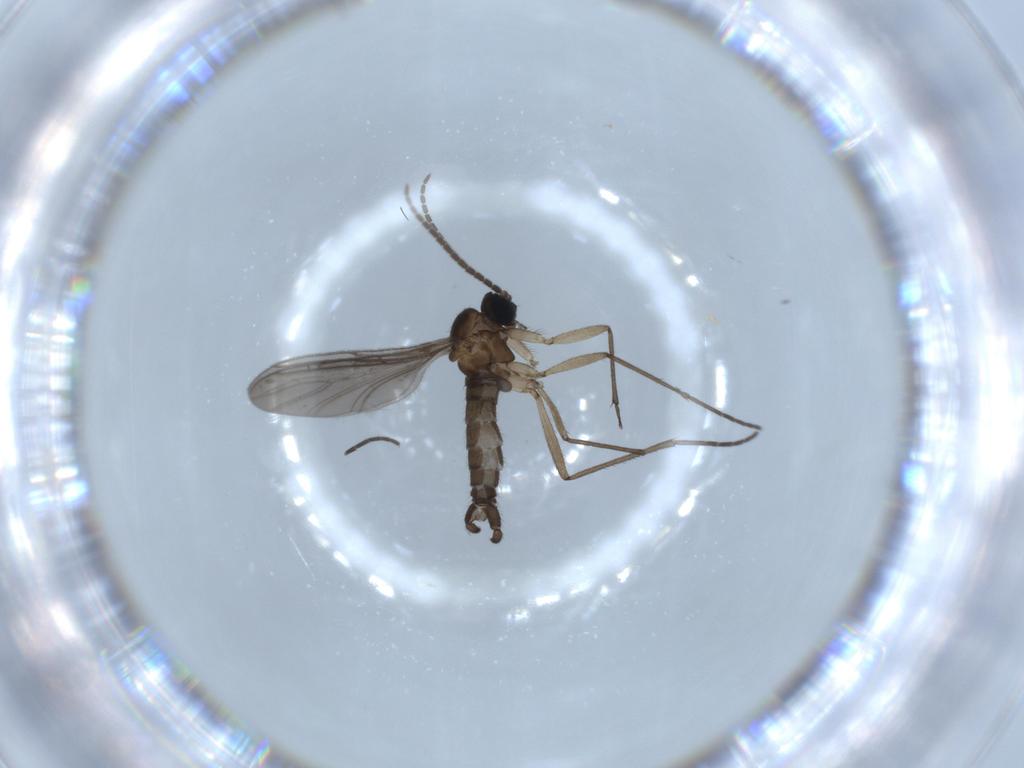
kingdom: Animalia
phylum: Arthropoda
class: Insecta
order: Diptera
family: Sciaridae
